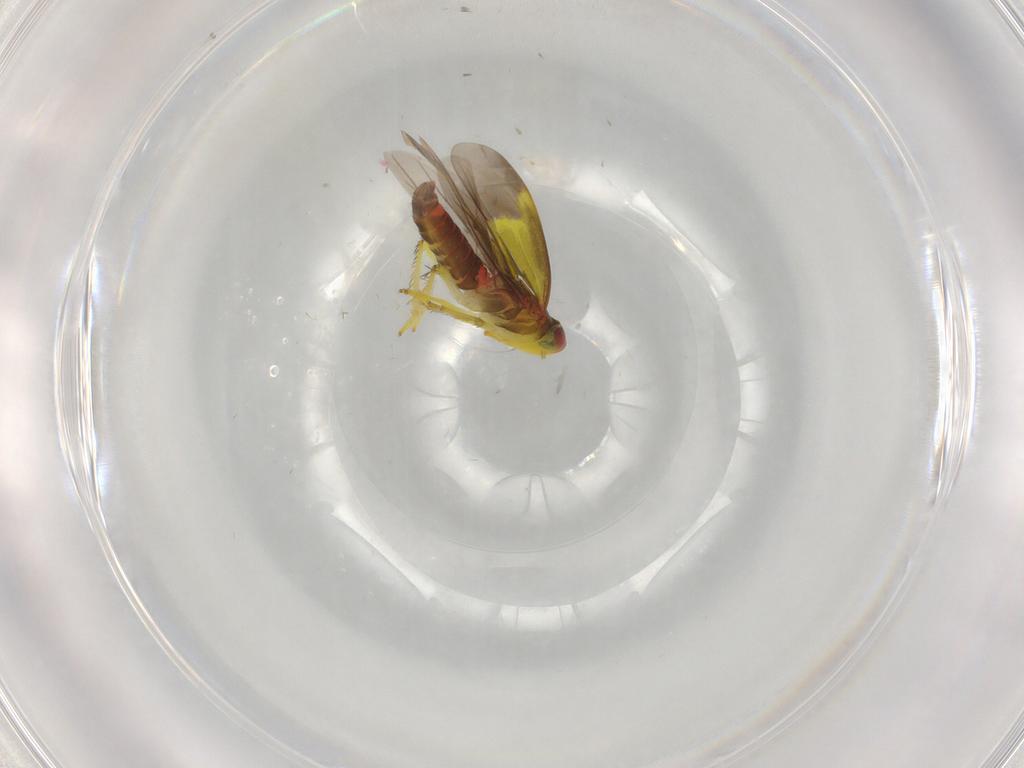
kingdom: Animalia
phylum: Arthropoda
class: Insecta
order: Hemiptera
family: Cicadellidae
